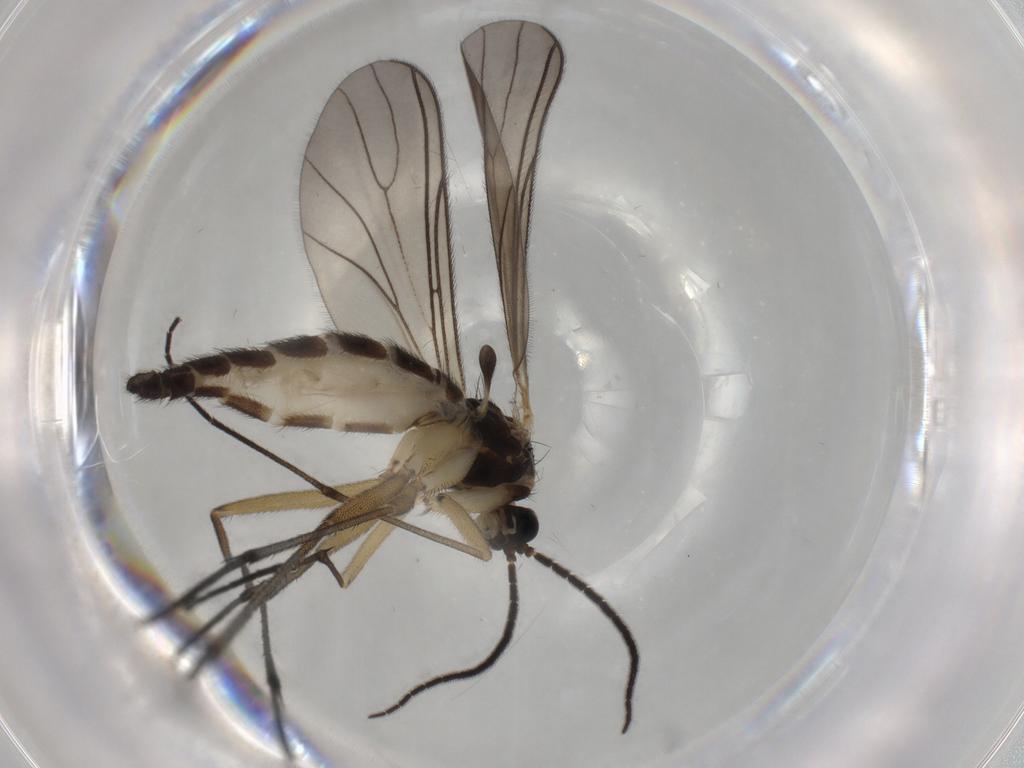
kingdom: Animalia
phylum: Arthropoda
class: Insecta
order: Diptera
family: Sciaridae
